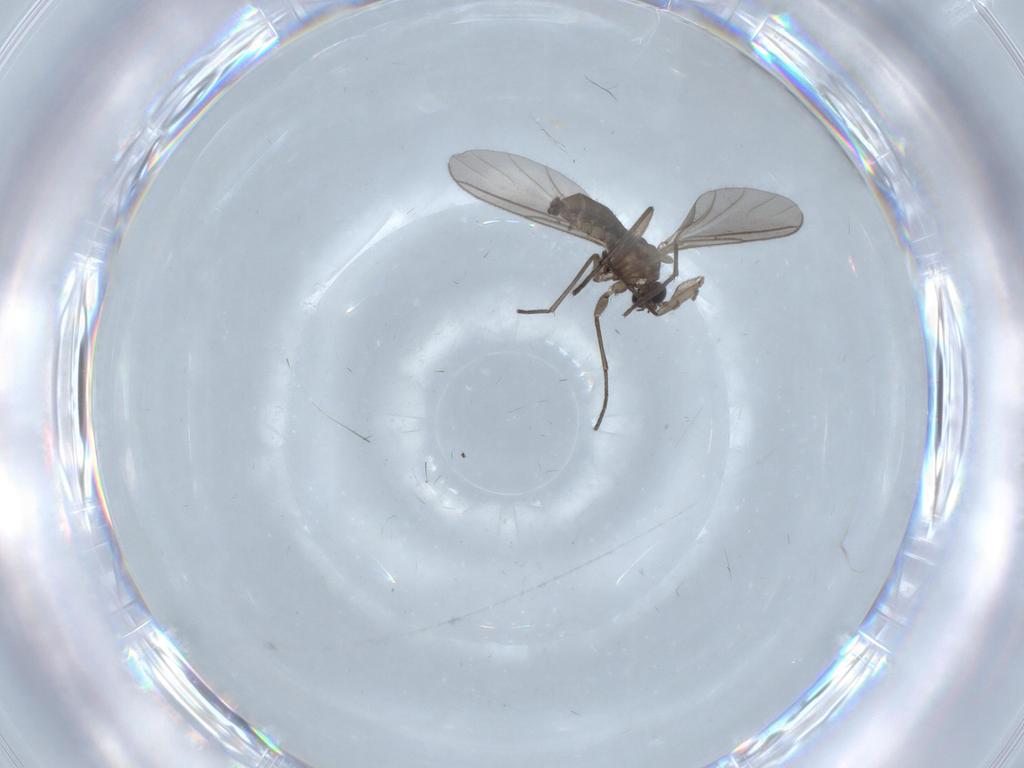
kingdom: Animalia
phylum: Arthropoda
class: Insecta
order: Diptera
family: Sciaridae
